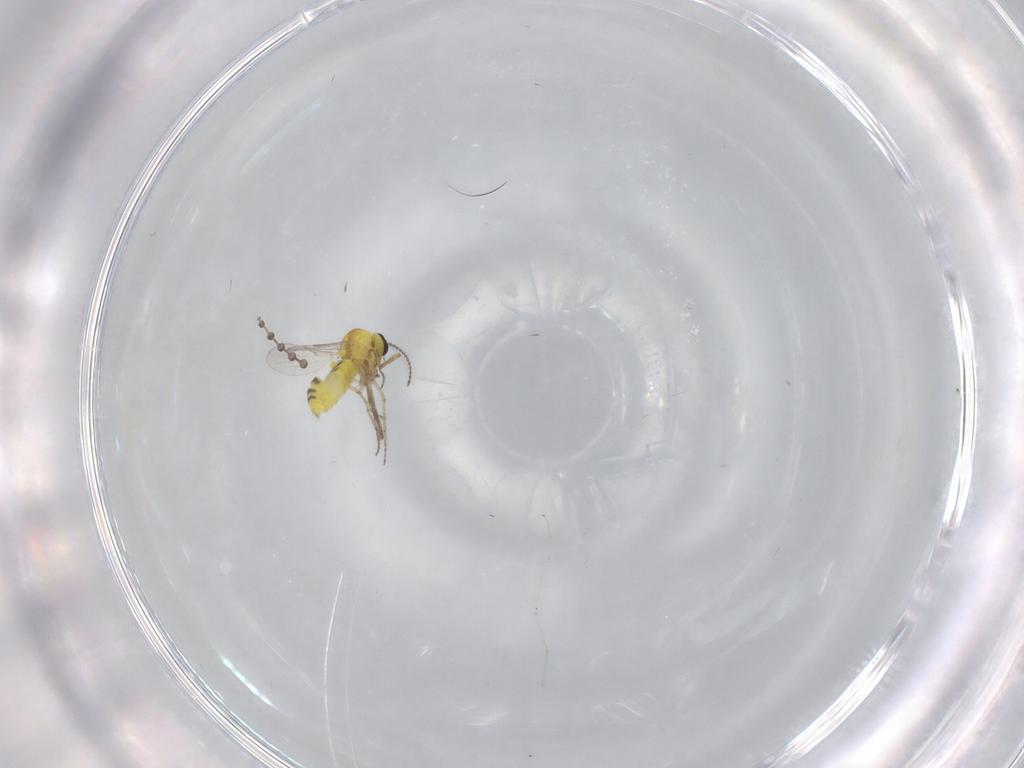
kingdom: Animalia
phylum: Arthropoda
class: Insecta
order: Diptera
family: Ceratopogonidae
